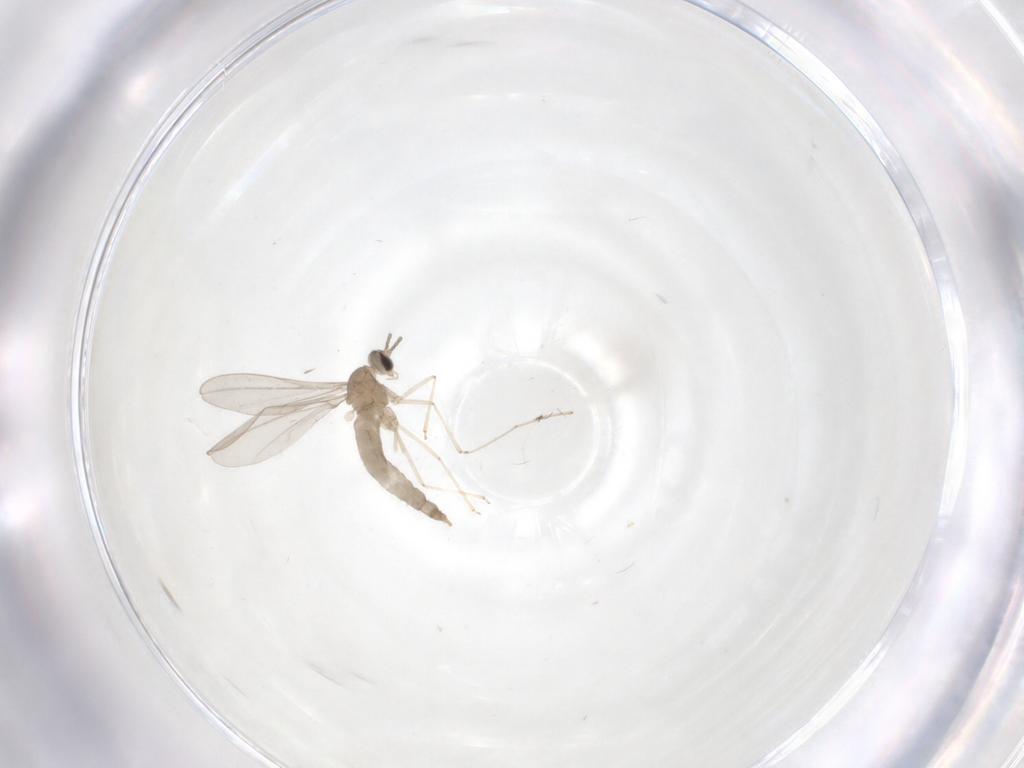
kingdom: Animalia
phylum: Arthropoda
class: Insecta
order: Diptera
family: Cecidomyiidae
